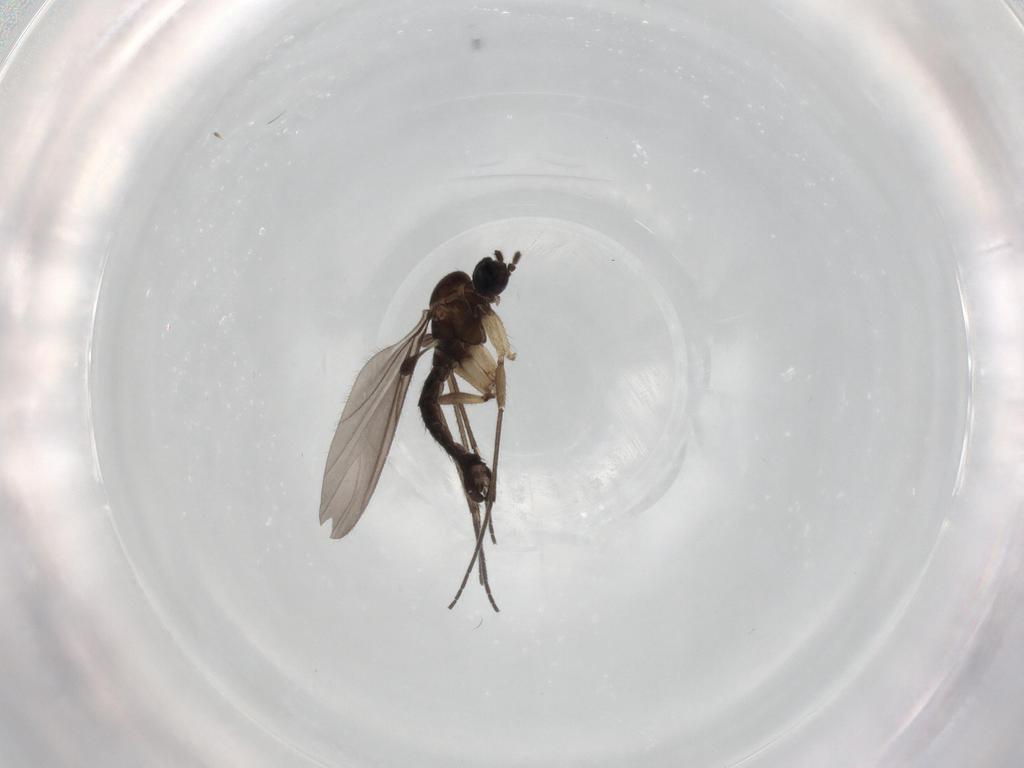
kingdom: Animalia
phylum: Arthropoda
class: Insecta
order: Diptera
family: Sciaridae
